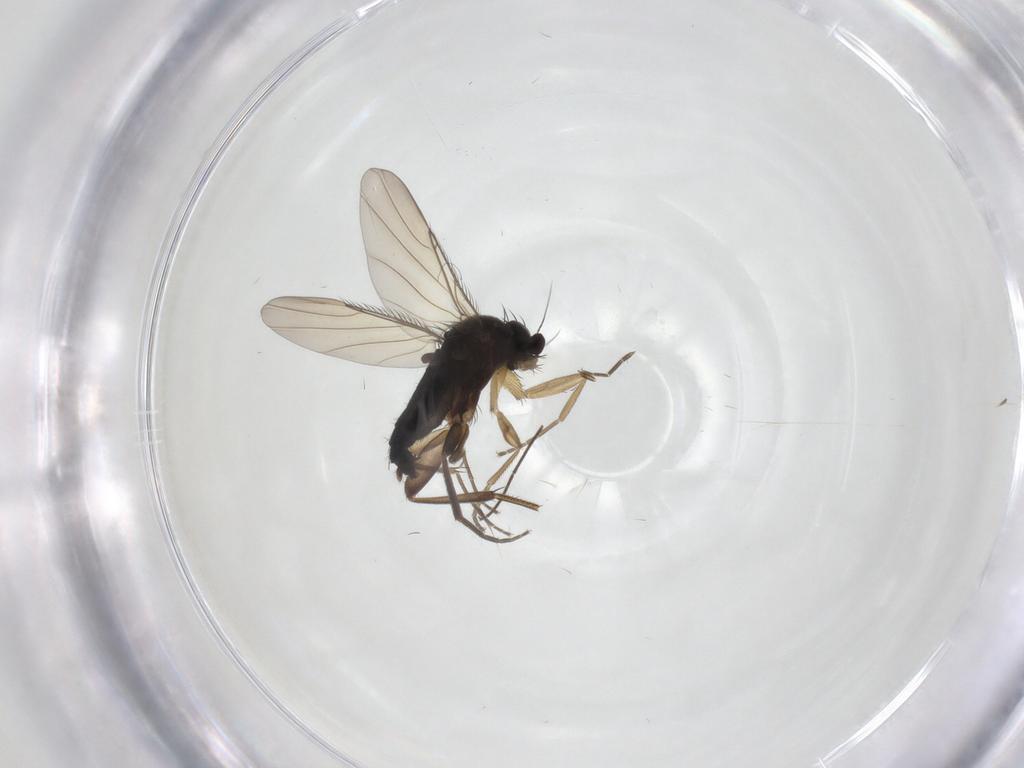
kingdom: Animalia
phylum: Arthropoda
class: Insecta
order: Diptera
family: Phoridae
